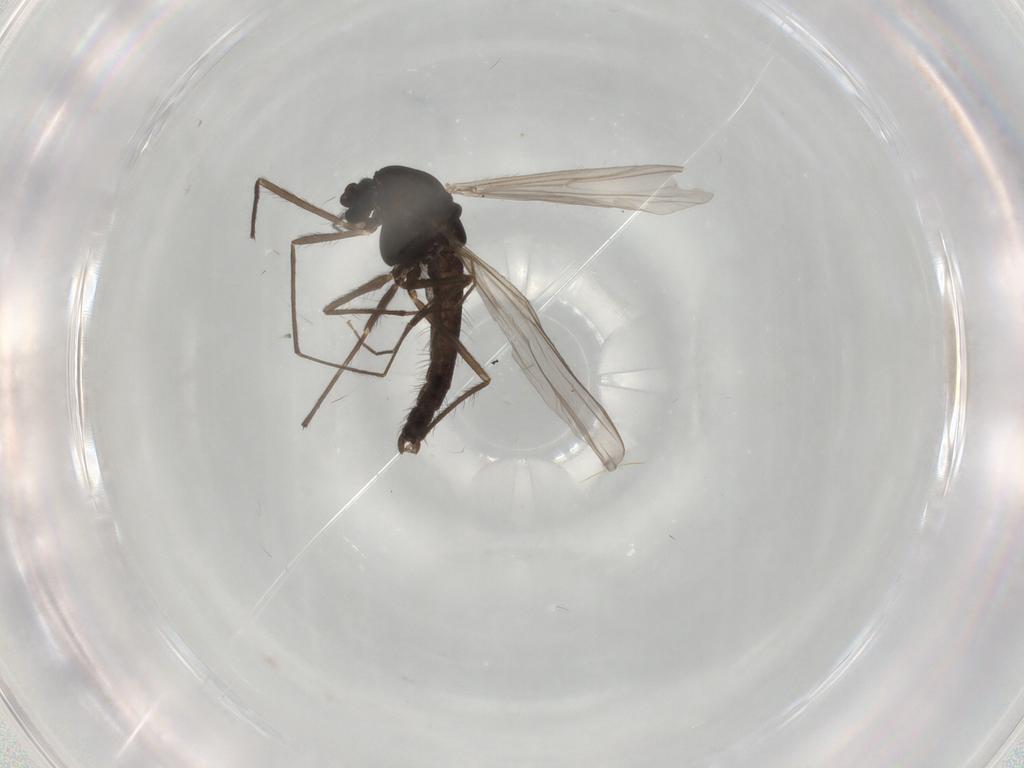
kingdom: Animalia
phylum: Arthropoda
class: Insecta
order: Diptera
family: Chironomidae
